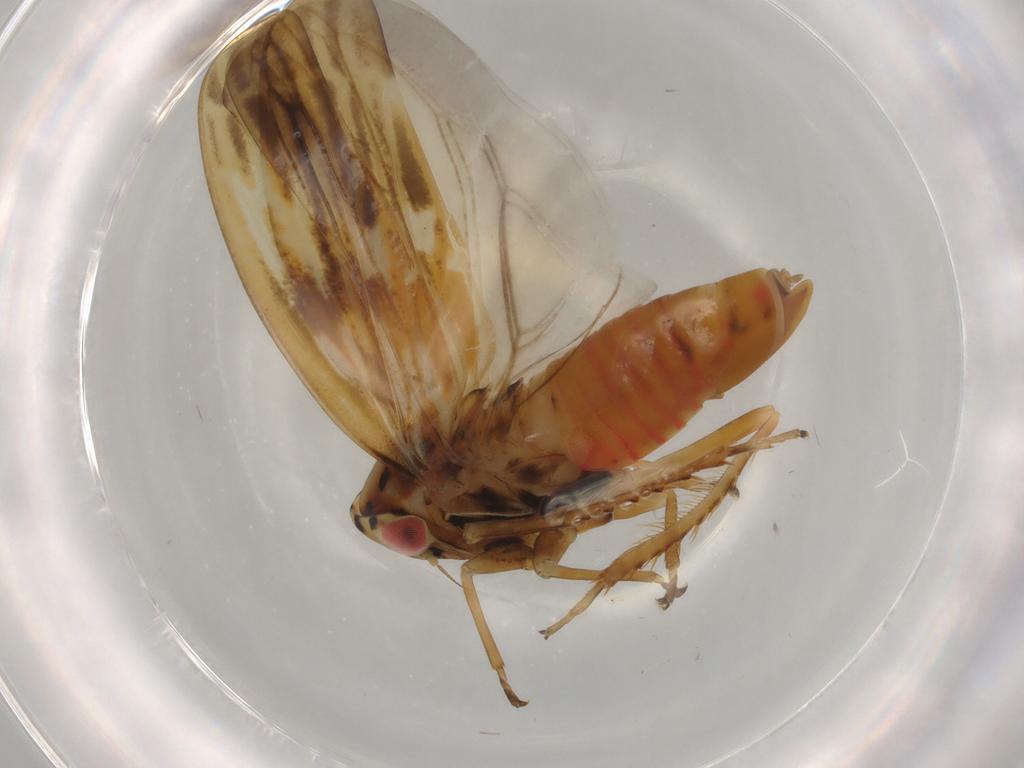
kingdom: Animalia
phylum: Arthropoda
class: Insecta
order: Hemiptera
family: Cicadellidae
